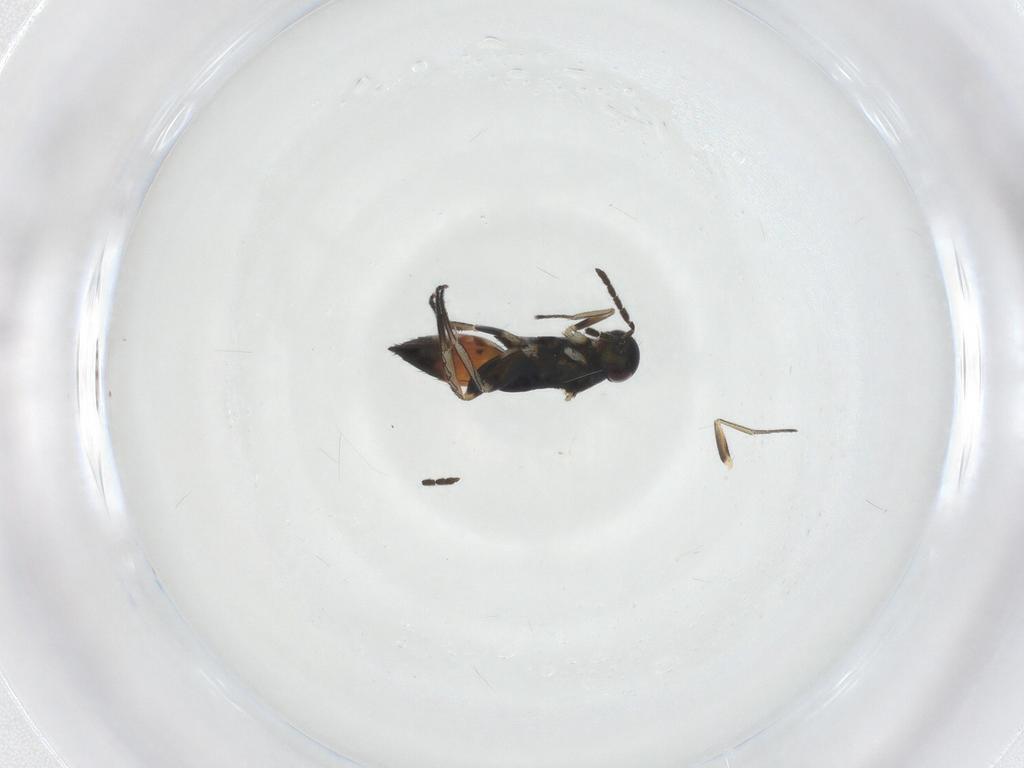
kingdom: Animalia
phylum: Arthropoda
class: Insecta
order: Hymenoptera
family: Eulophidae
